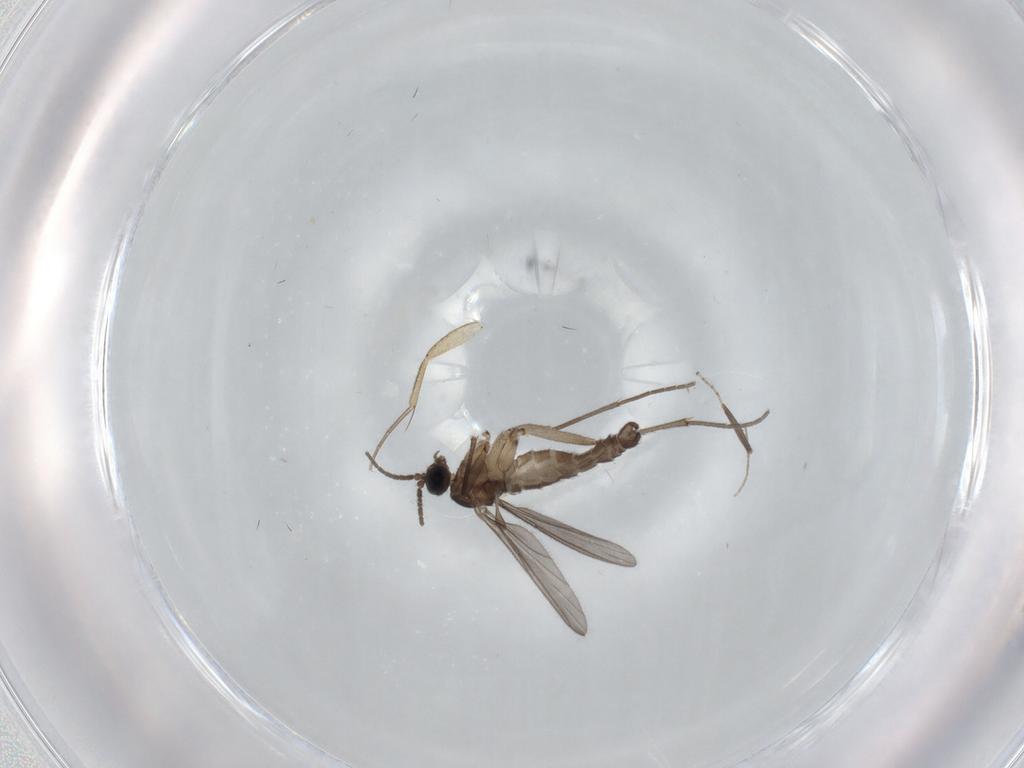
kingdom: Animalia
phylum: Arthropoda
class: Insecta
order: Diptera
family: Sciaridae
